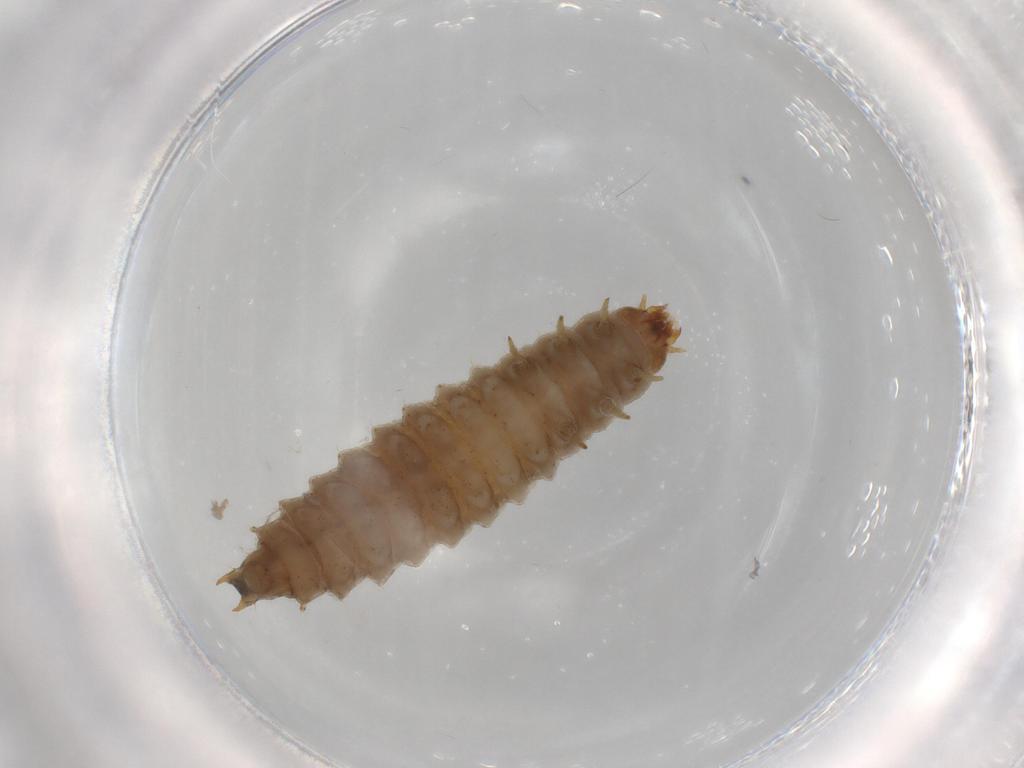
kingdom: Animalia
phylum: Arthropoda
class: Insecta
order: Coleoptera
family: Nitidulidae
